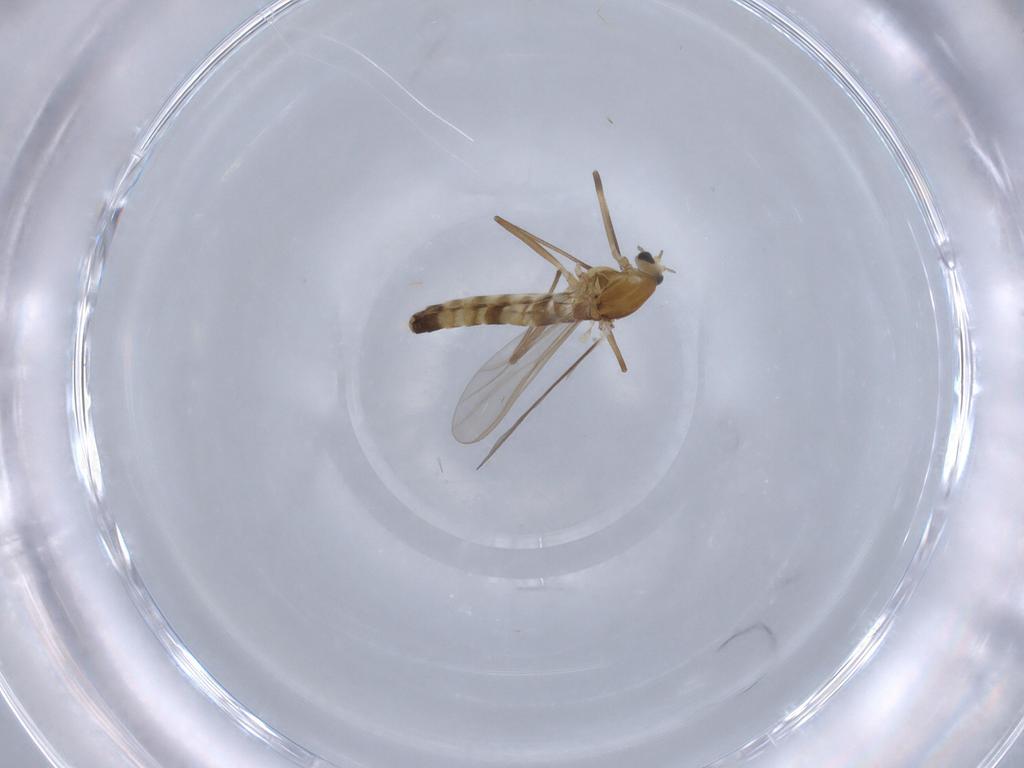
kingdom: Animalia
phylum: Arthropoda
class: Insecta
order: Diptera
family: Chironomidae
